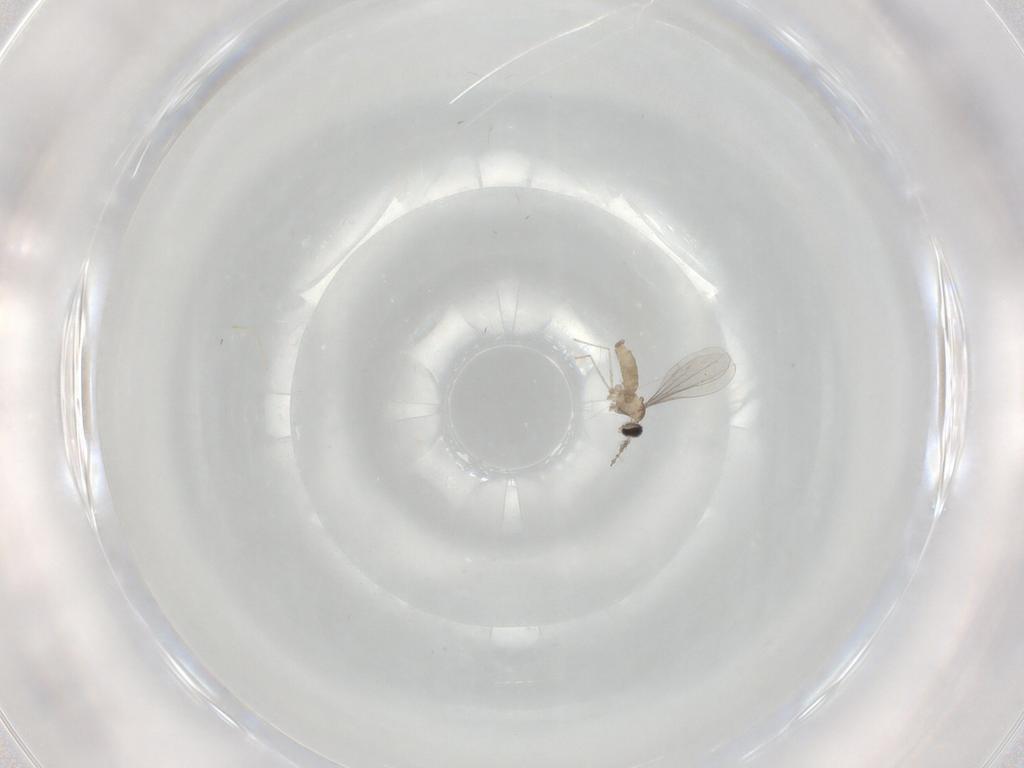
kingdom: Animalia
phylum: Arthropoda
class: Insecta
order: Diptera
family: Cecidomyiidae
